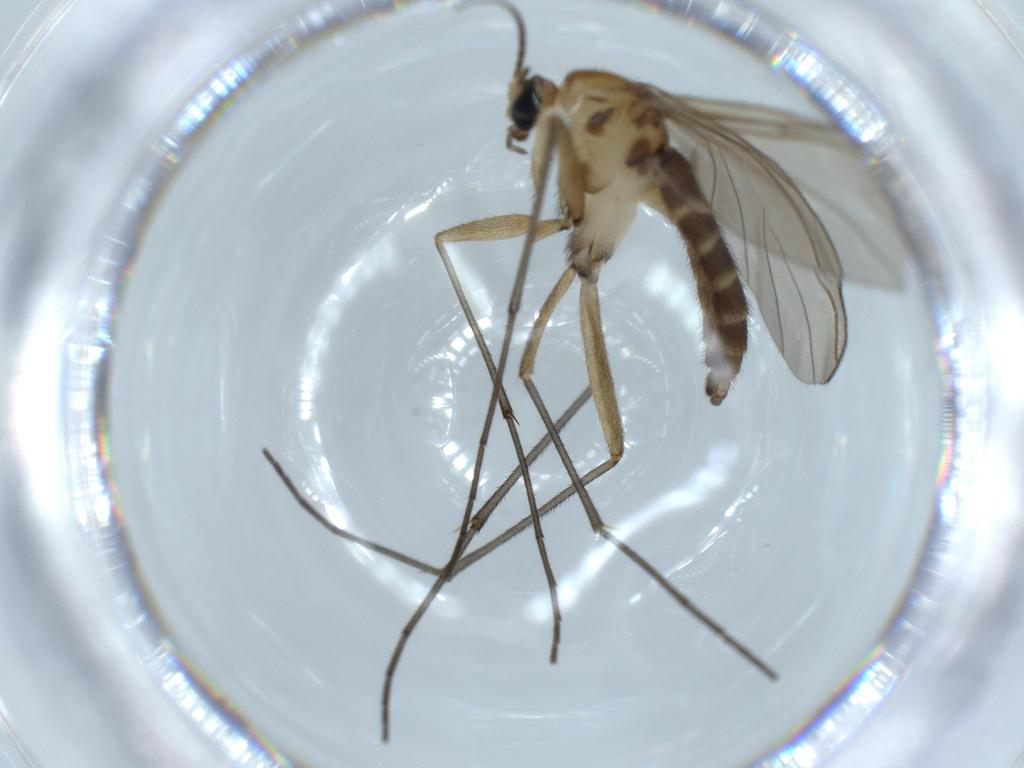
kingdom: Animalia
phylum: Arthropoda
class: Insecta
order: Diptera
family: Sciaridae
